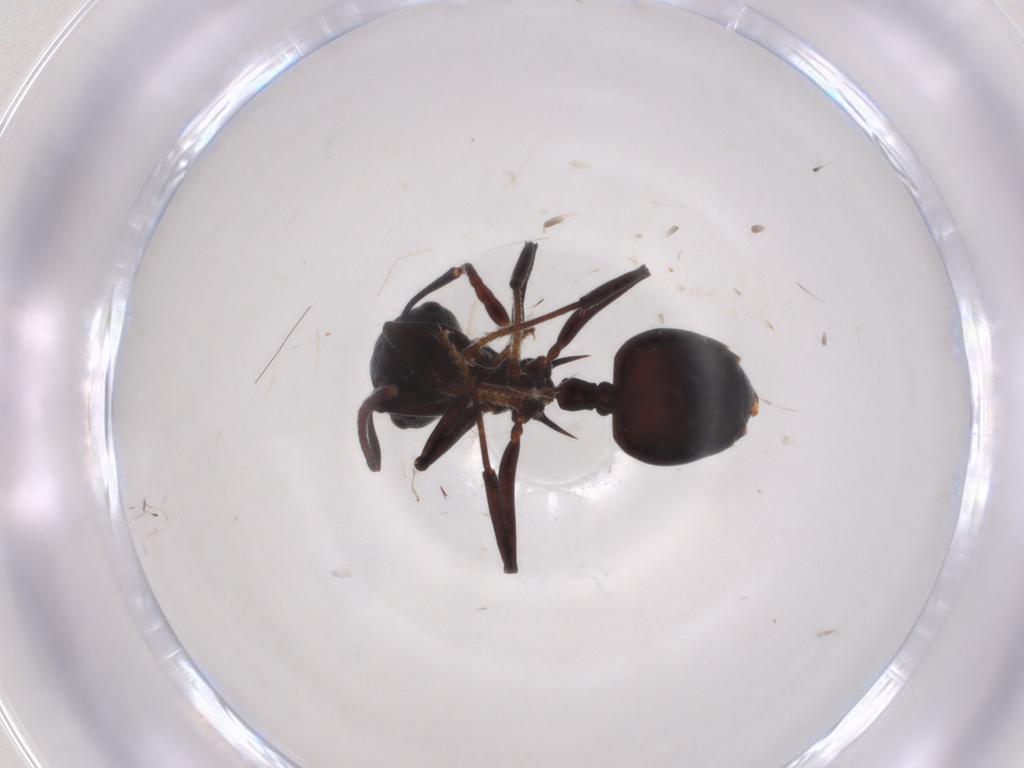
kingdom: Animalia
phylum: Arthropoda
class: Insecta
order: Hymenoptera
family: Formicidae
